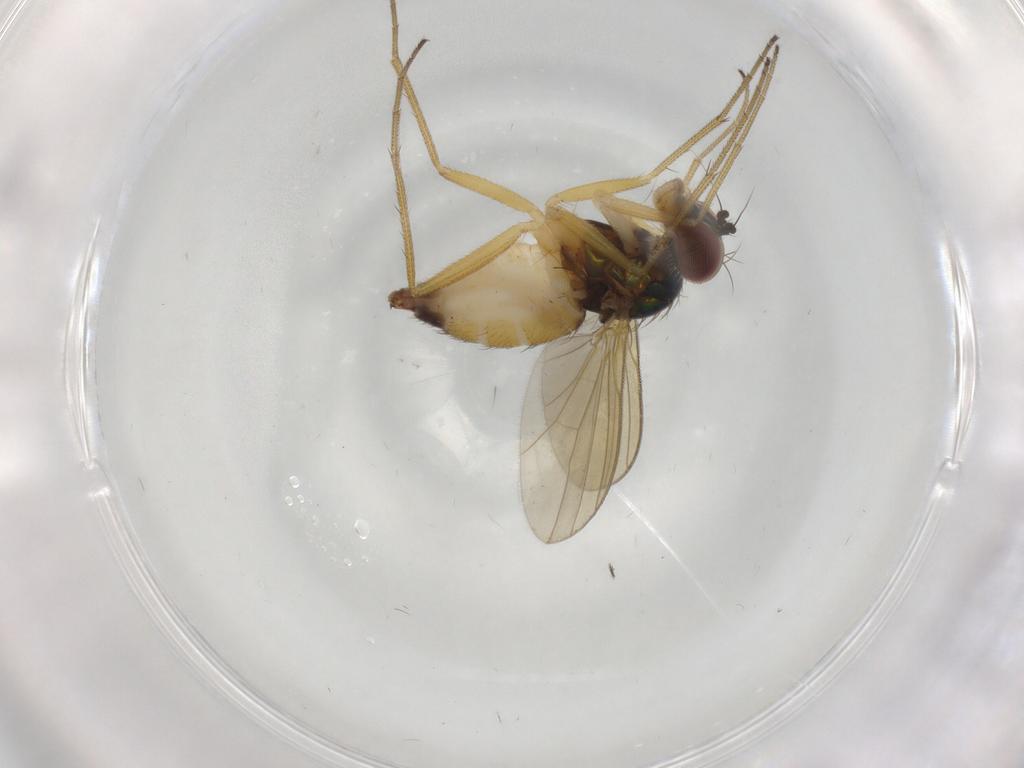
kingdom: Animalia
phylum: Arthropoda
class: Insecta
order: Diptera
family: Dolichopodidae
